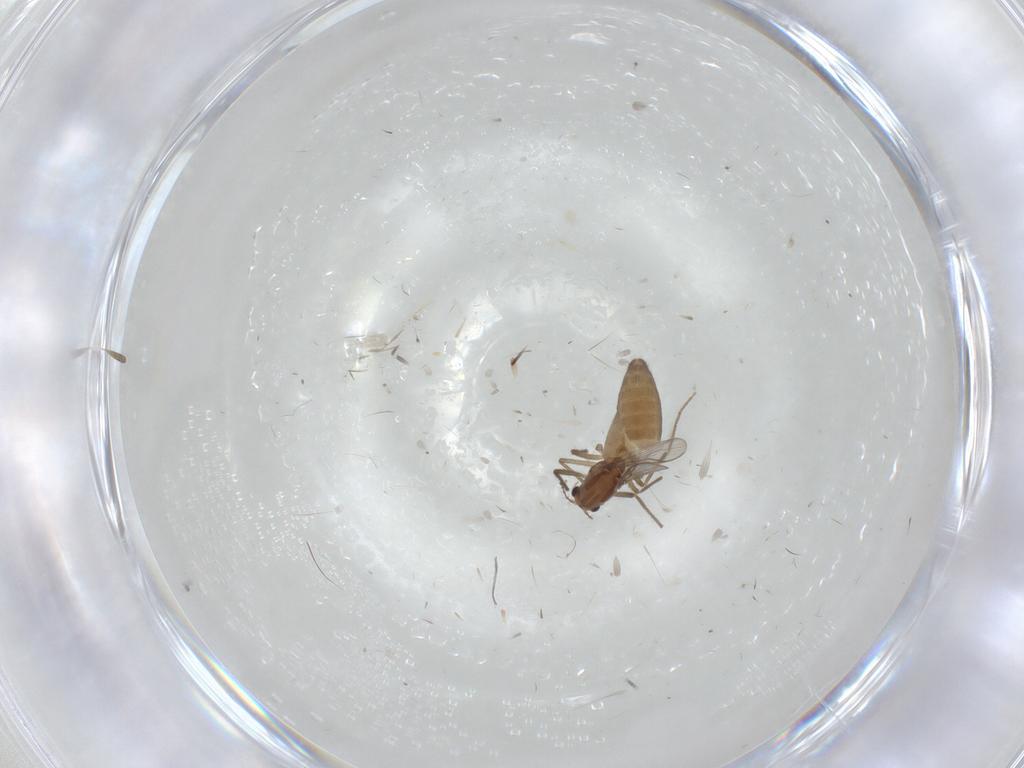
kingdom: Animalia
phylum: Arthropoda
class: Insecta
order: Diptera
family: Chironomidae
